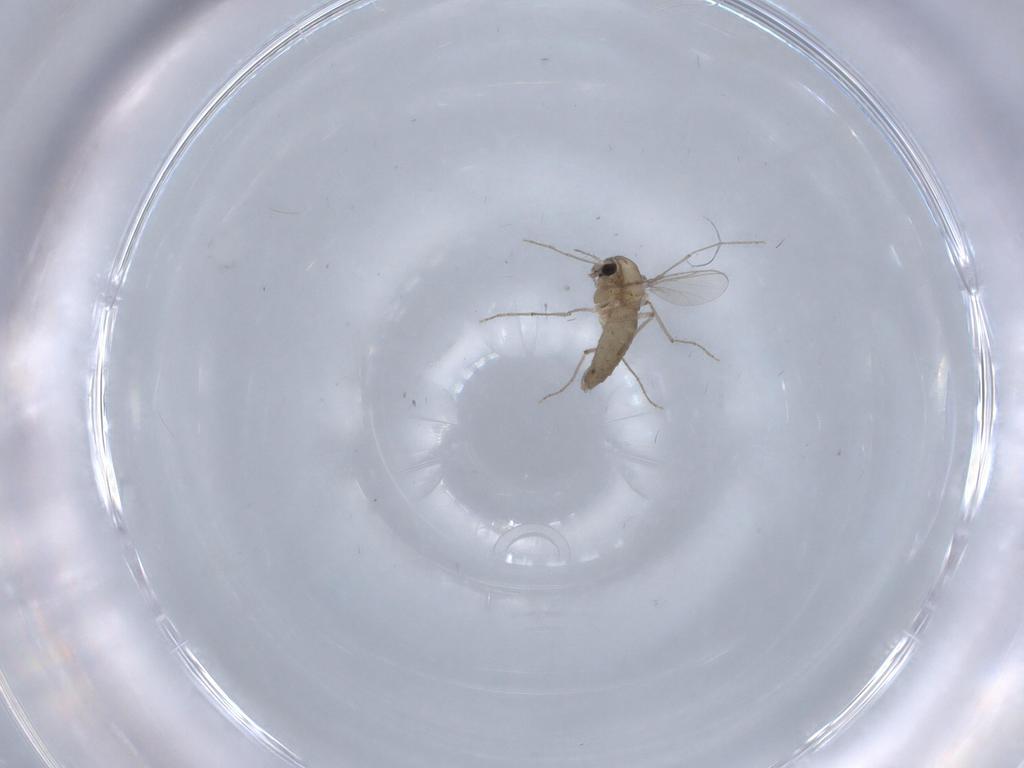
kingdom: Animalia
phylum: Arthropoda
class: Insecta
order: Diptera
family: Chironomidae
